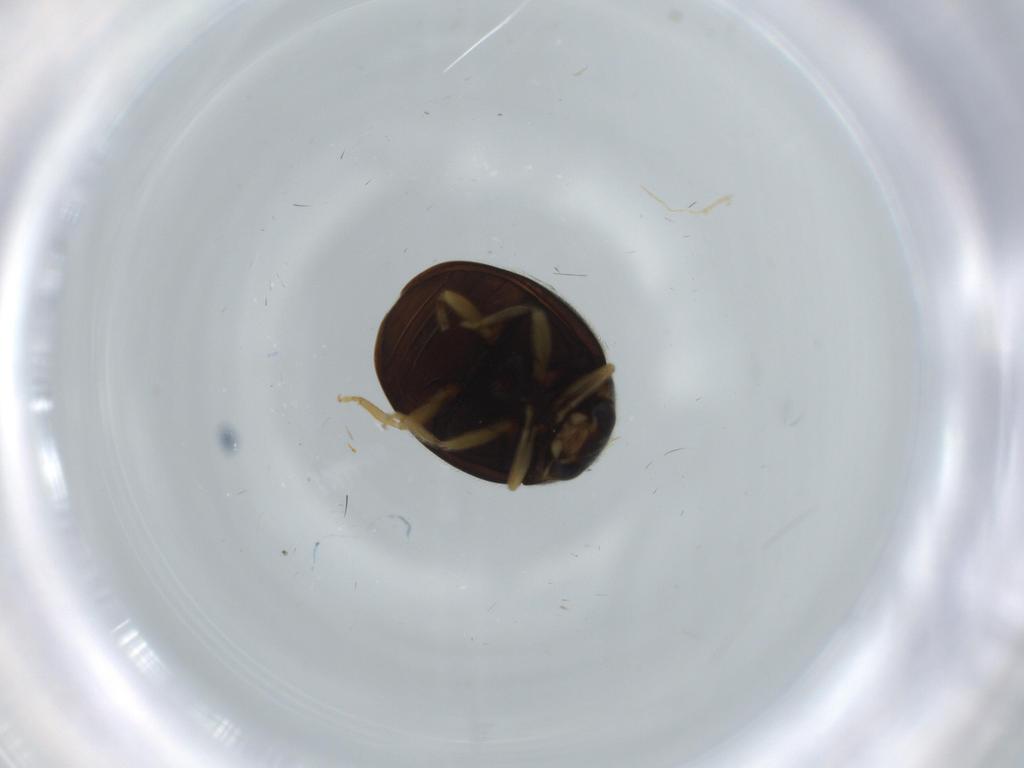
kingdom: Animalia
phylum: Arthropoda
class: Insecta
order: Coleoptera
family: Coccinellidae
